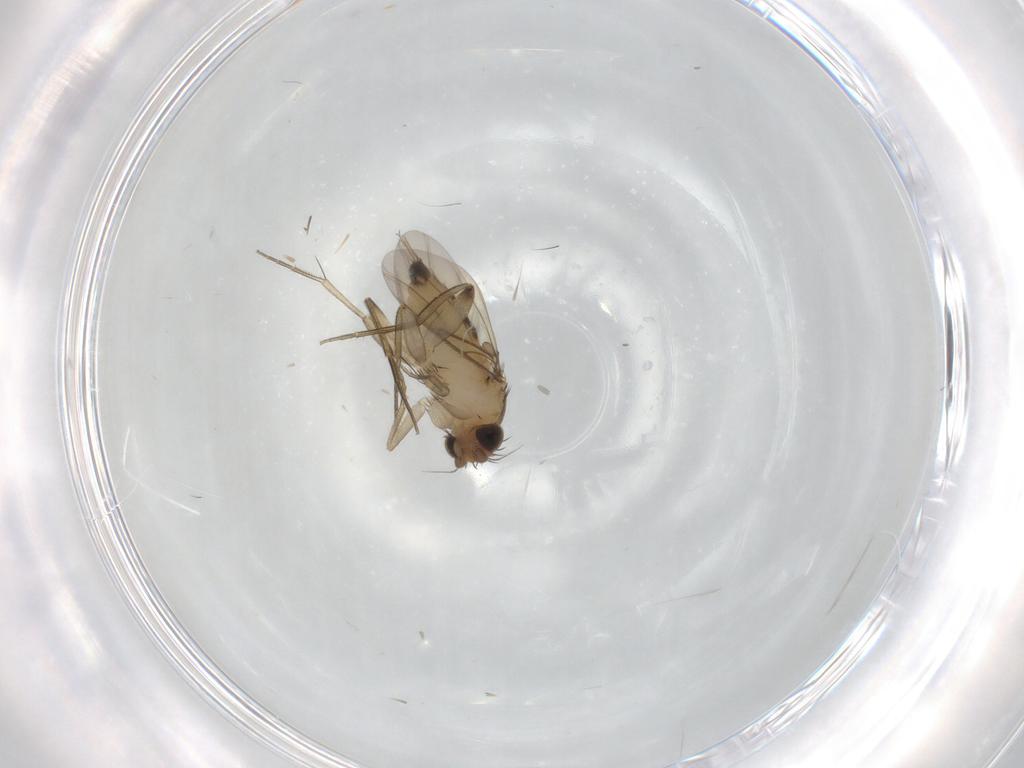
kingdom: Animalia
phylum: Arthropoda
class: Insecta
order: Diptera
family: Phoridae
